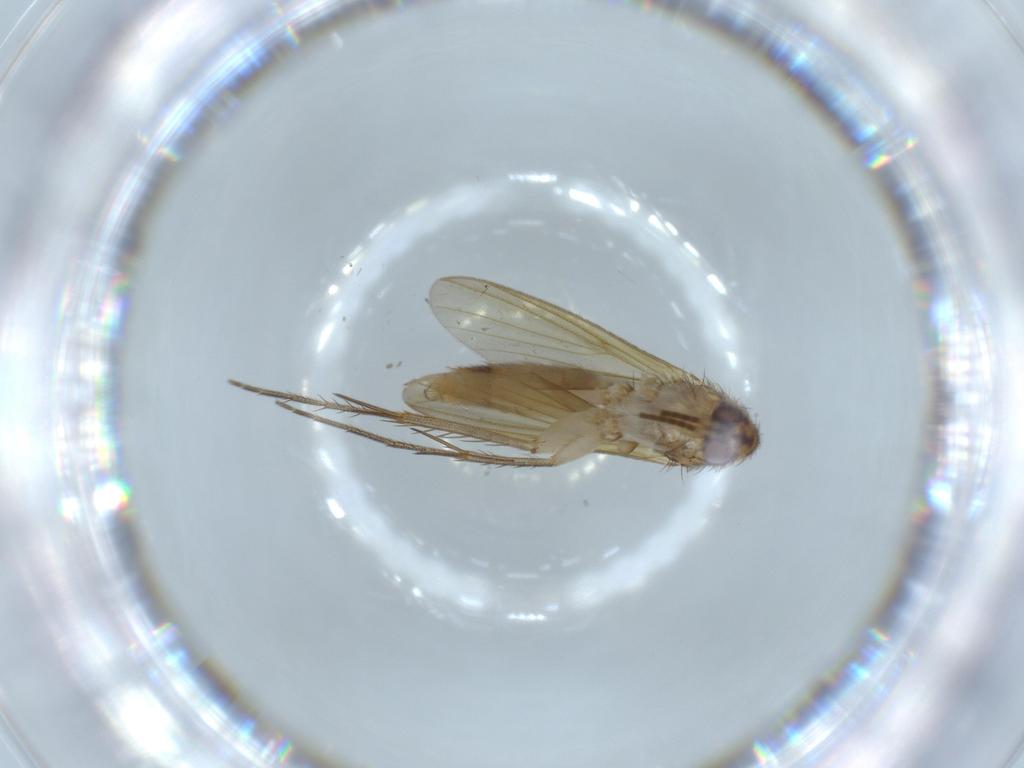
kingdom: Animalia
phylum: Arthropoda
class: Insecta
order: Diptera
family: Mycetophilidae
